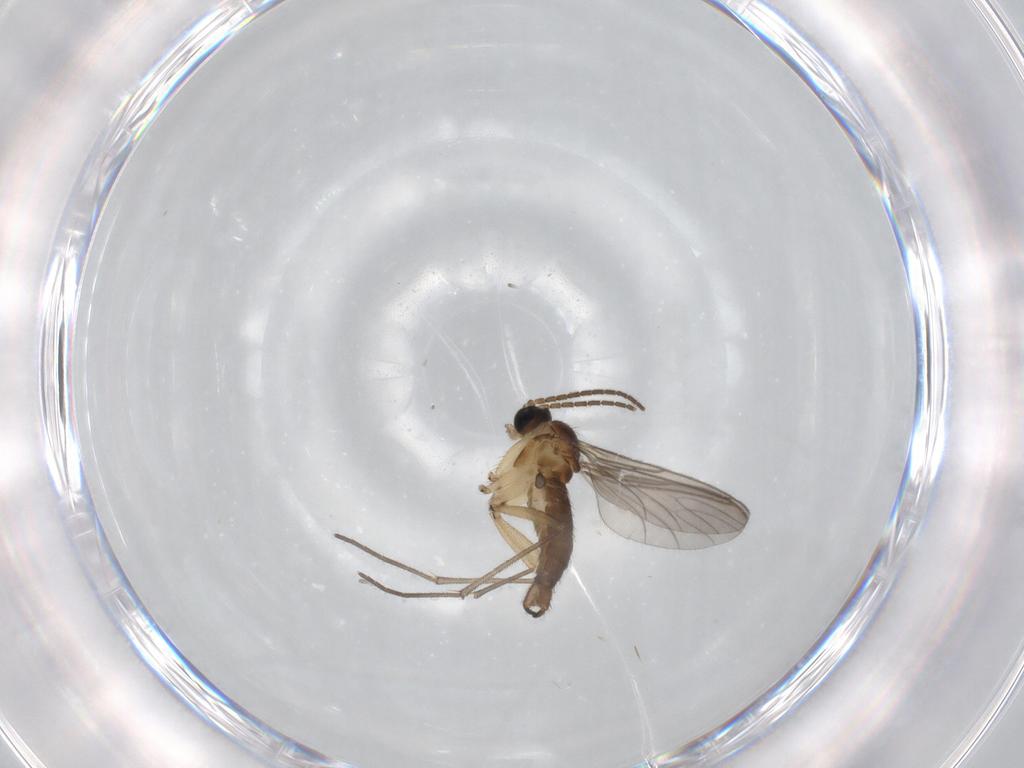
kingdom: Animalia
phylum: Arthropoda
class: Insecta
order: Diptera
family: Sciaridae
